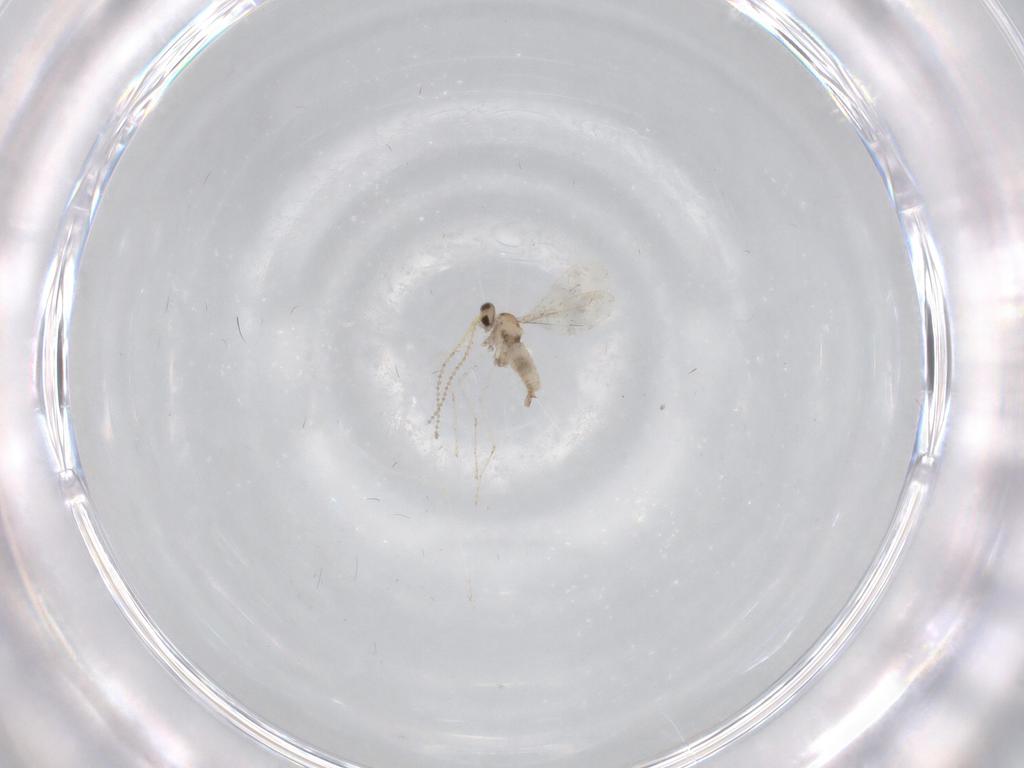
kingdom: Animalia
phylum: Arthropoda
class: Insecta
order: Diptera
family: Cecidomyiidae
